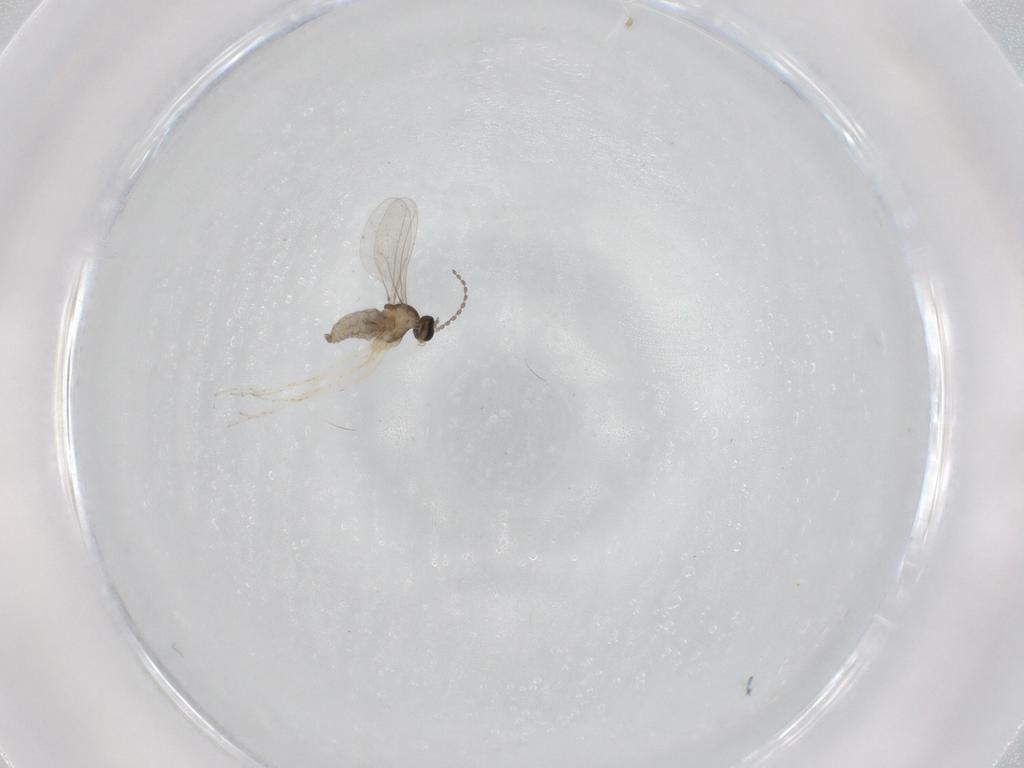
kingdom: Animalia
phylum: Arthropoda
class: Insecta
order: Diptera
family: Cecidomyiidae
